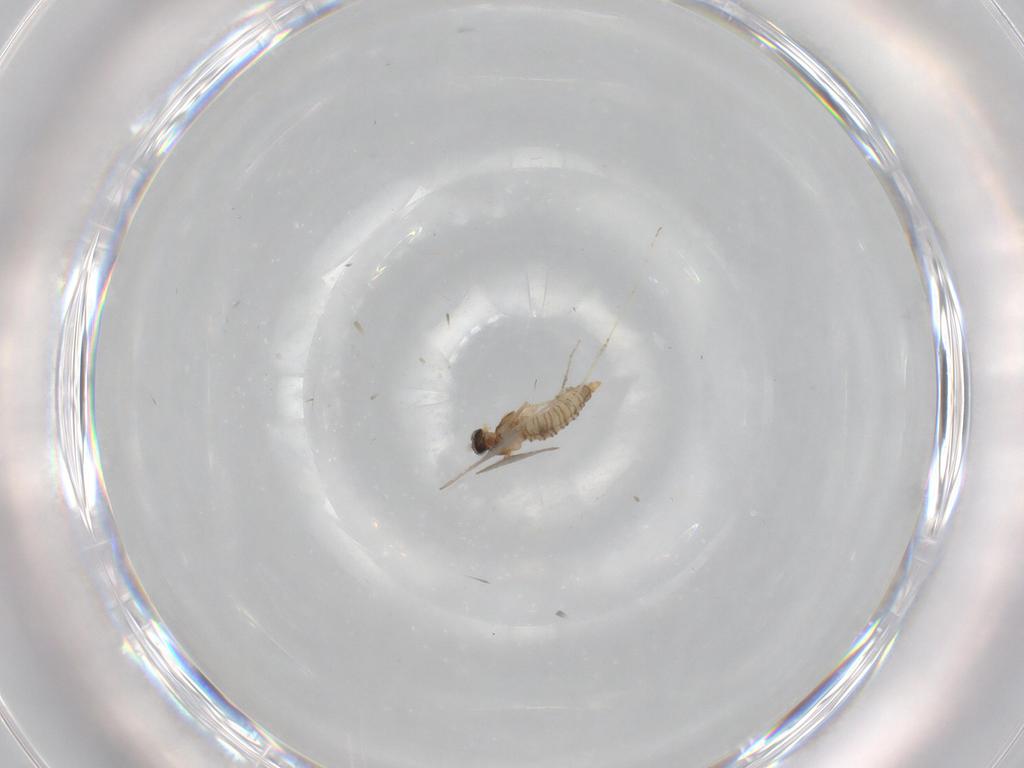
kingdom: Animalia
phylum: Arthropoda
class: Insecta
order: Diptera
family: Cecidomyiidae
